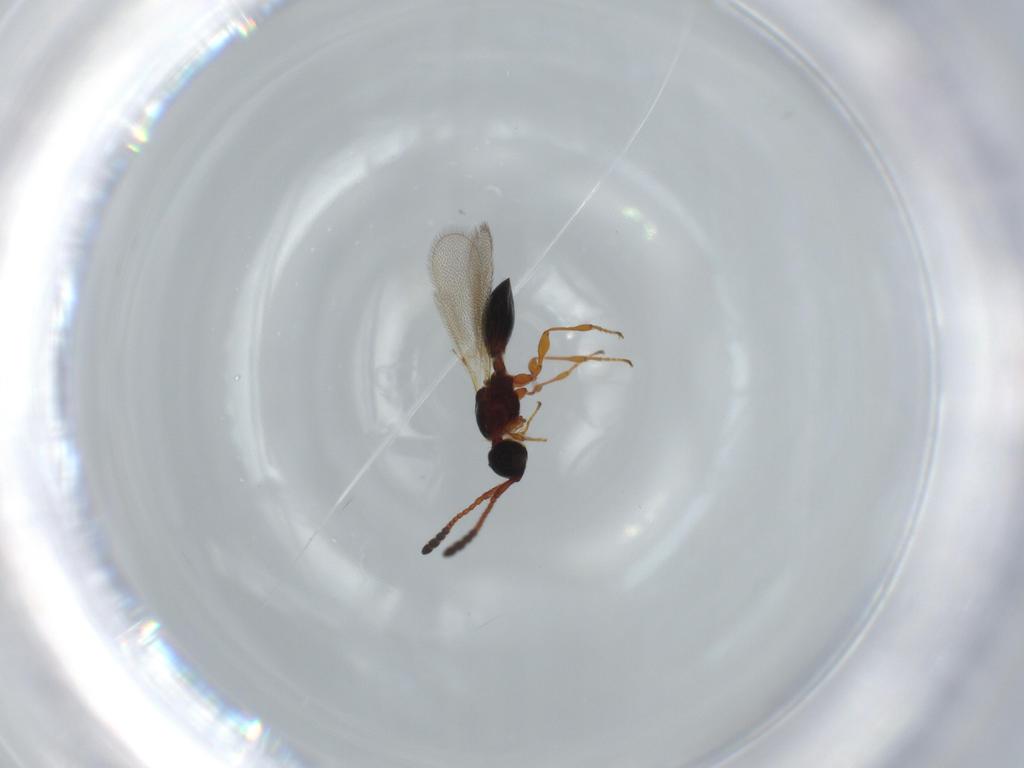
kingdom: Animalia
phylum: Arthropoda
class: Insecta
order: Hymenoptera
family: Diapriidae
